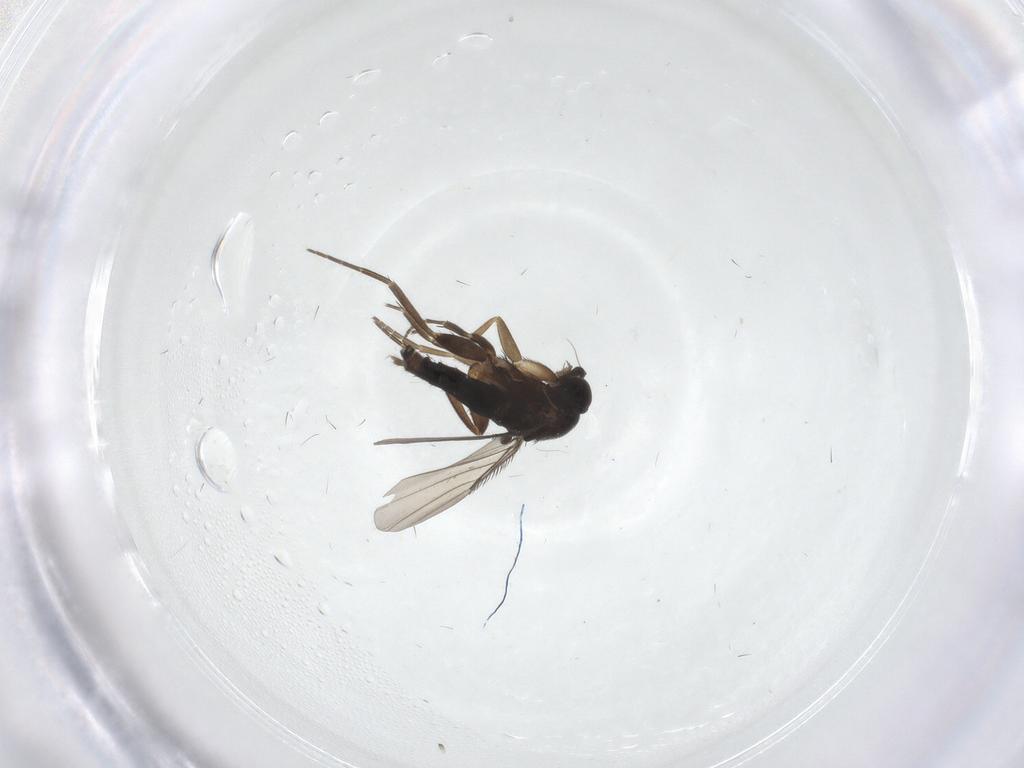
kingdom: Animalia
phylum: Arthropoda
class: Insecta
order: Diptera
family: Phoridae
